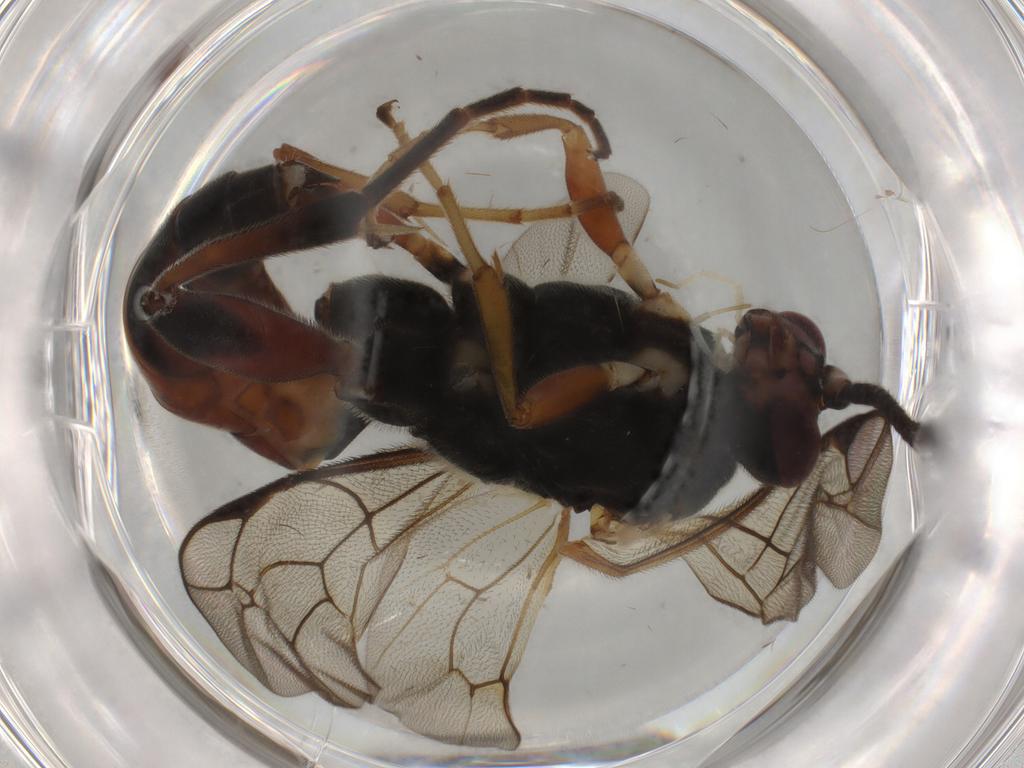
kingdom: Animalia
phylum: Arthropoda
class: Insecta
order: Hymenoptera
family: Ichneumonidae
